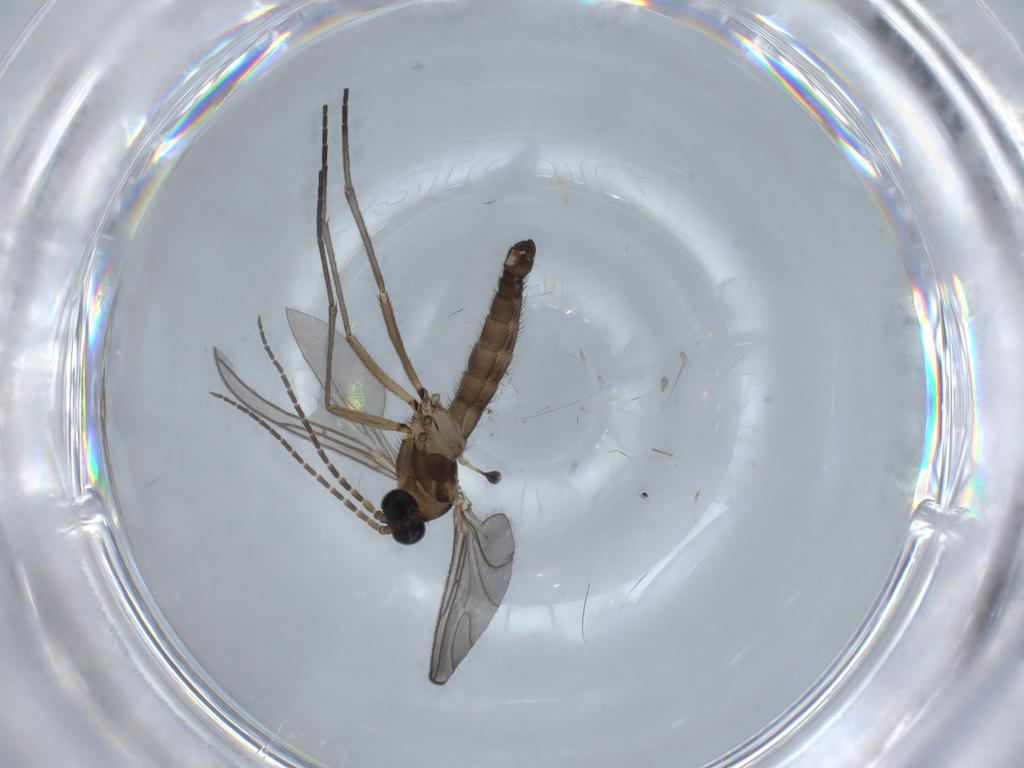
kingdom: Animalia
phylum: Arthropoda
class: Insecta
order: Diptera
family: Sciaridae
